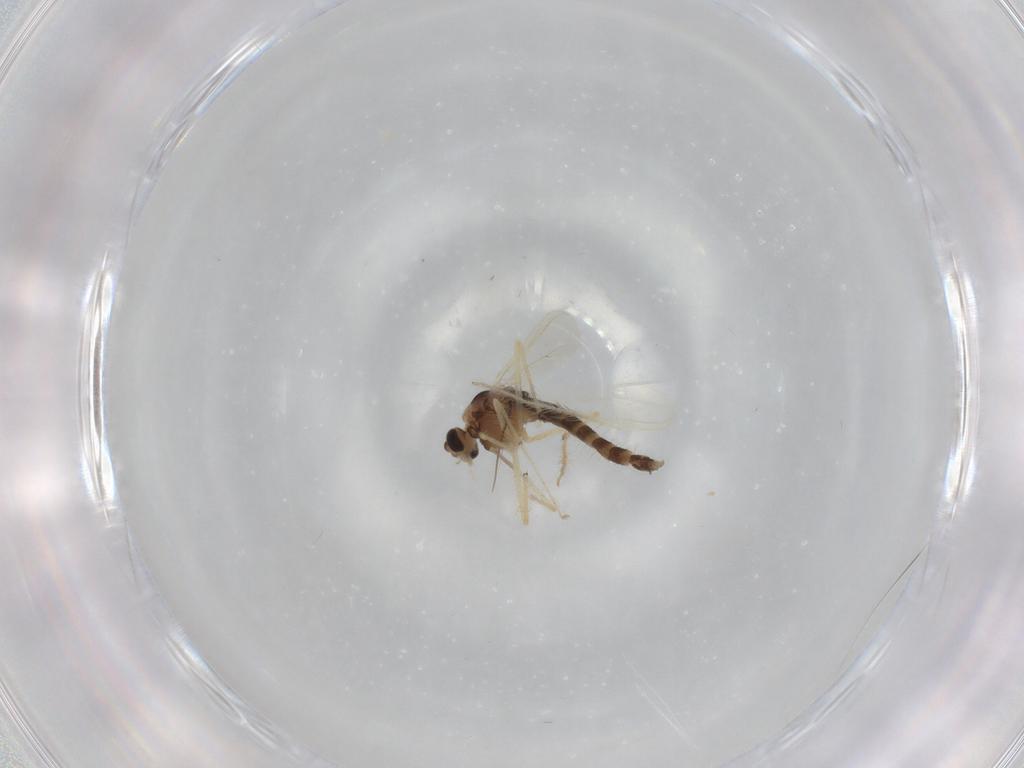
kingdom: Animalia
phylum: Arthropoda
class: Insecta
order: Diptera
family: Chironomidae
